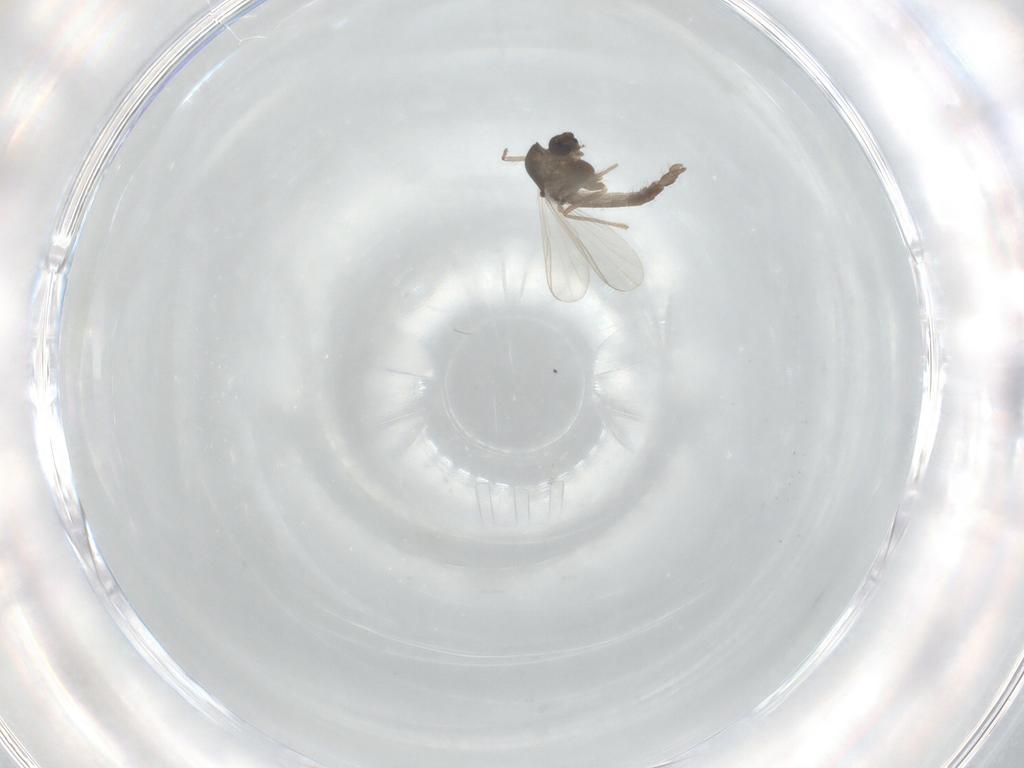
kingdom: Animalia
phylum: Arthropoda
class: Insecta
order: Diptera
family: Chironomidae
